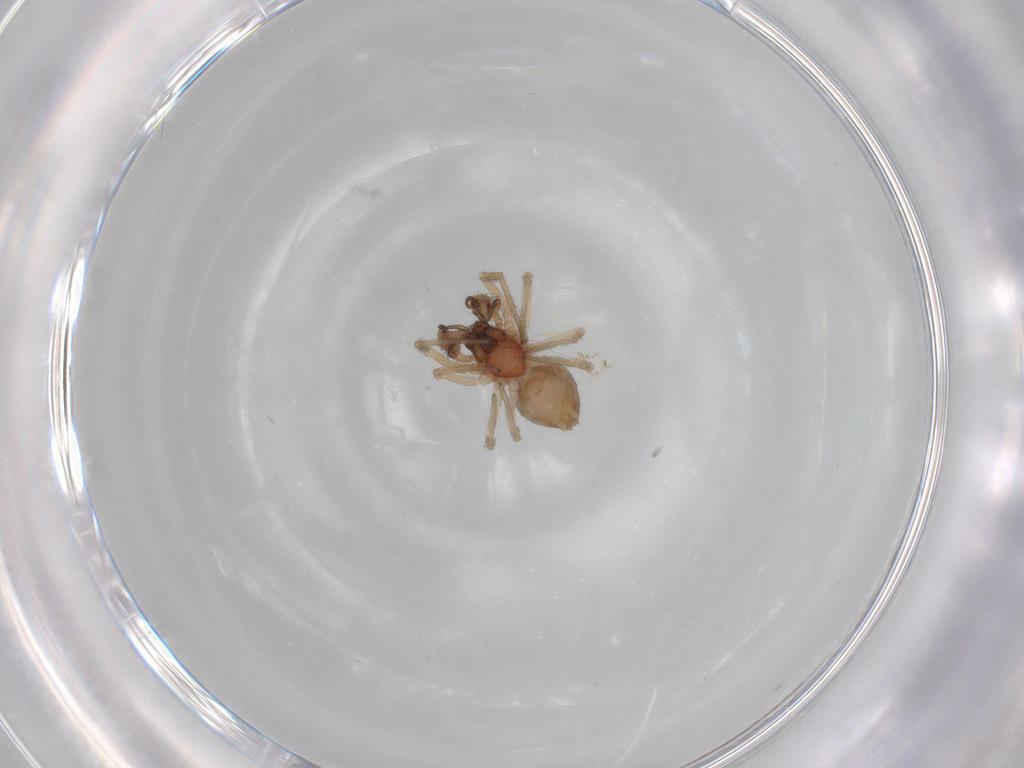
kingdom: Animalia
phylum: Arthropoda
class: Arachnida
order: Araneae
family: Dictynidae
